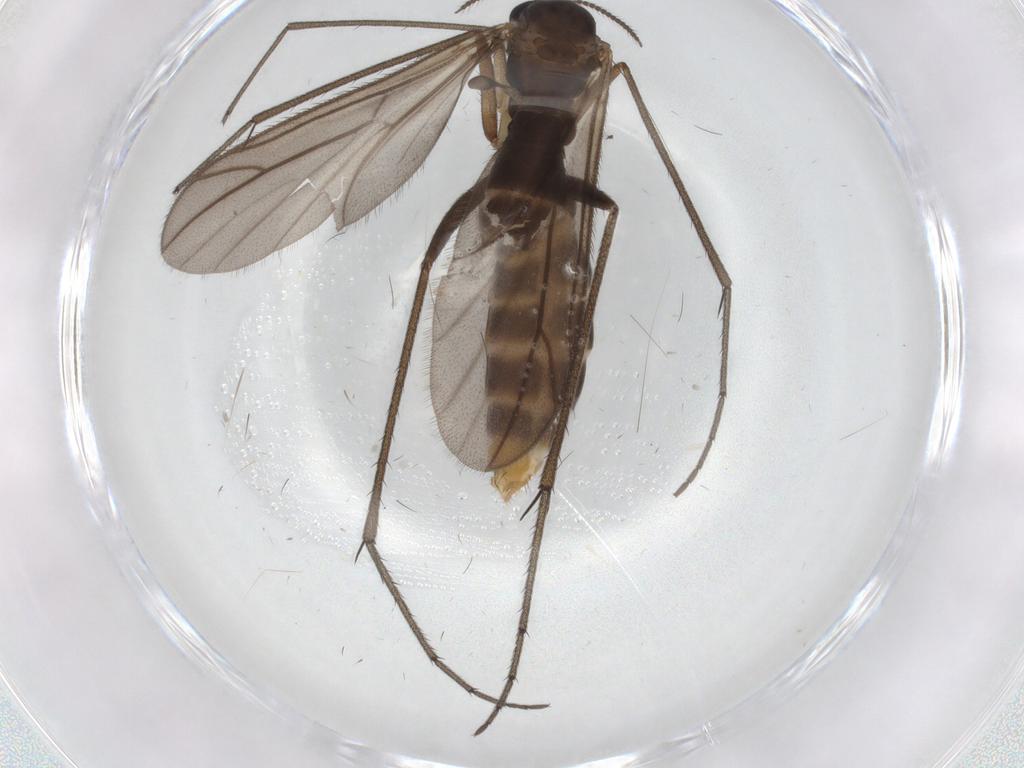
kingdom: Animalia
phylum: Arthropoda
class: Insecta
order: Diptera
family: Ditomyiidae
